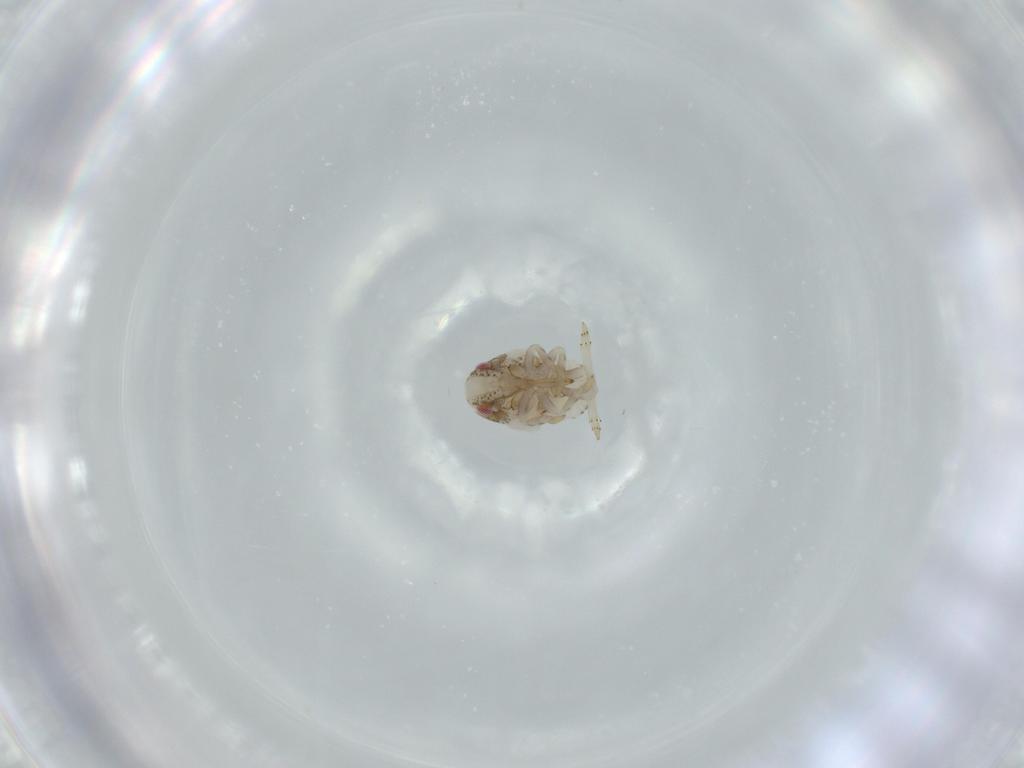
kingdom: Animalia
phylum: Arthropoda
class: Insecta
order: Hemiptera
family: Acanaloniidae
